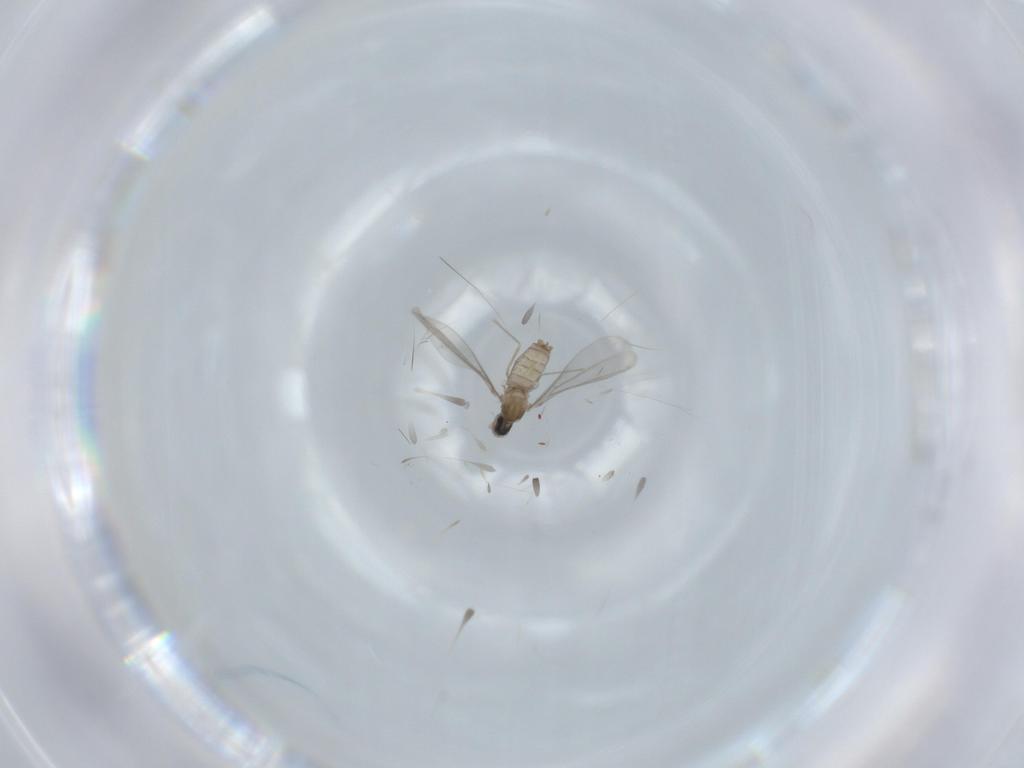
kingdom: Animalia
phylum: Arthropoda
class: Insecta
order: Diptera
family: Cecidomyiidae
